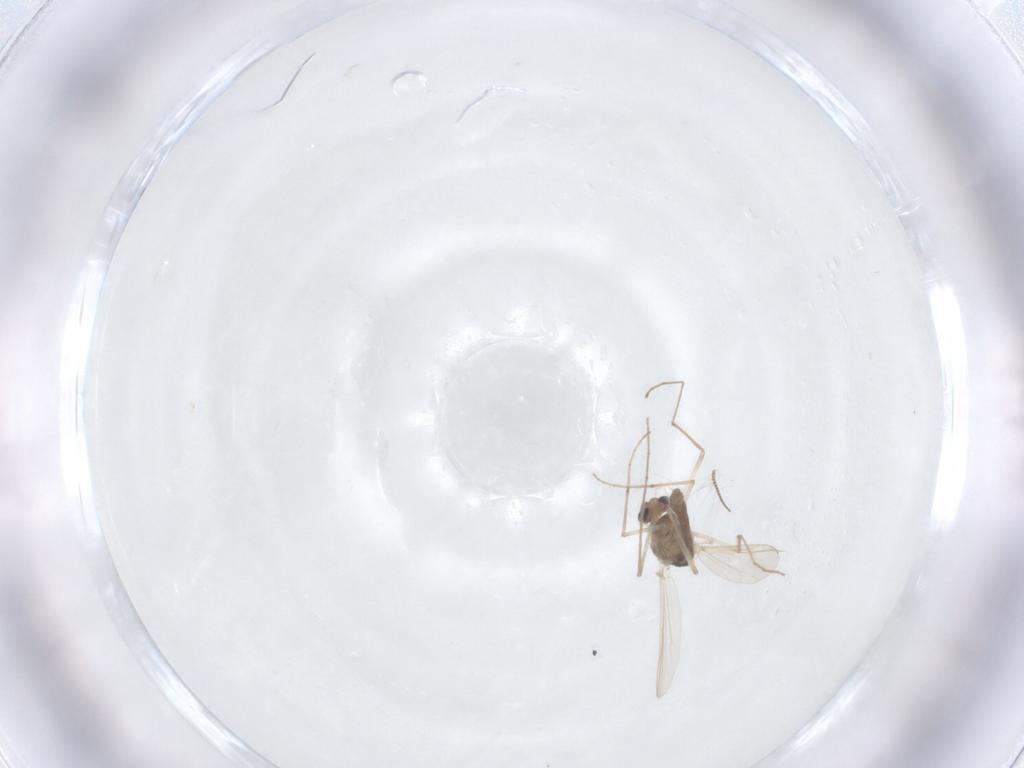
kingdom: Animalia
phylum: Arthropoda
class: Insecta
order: Diptera
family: Chironomidae
